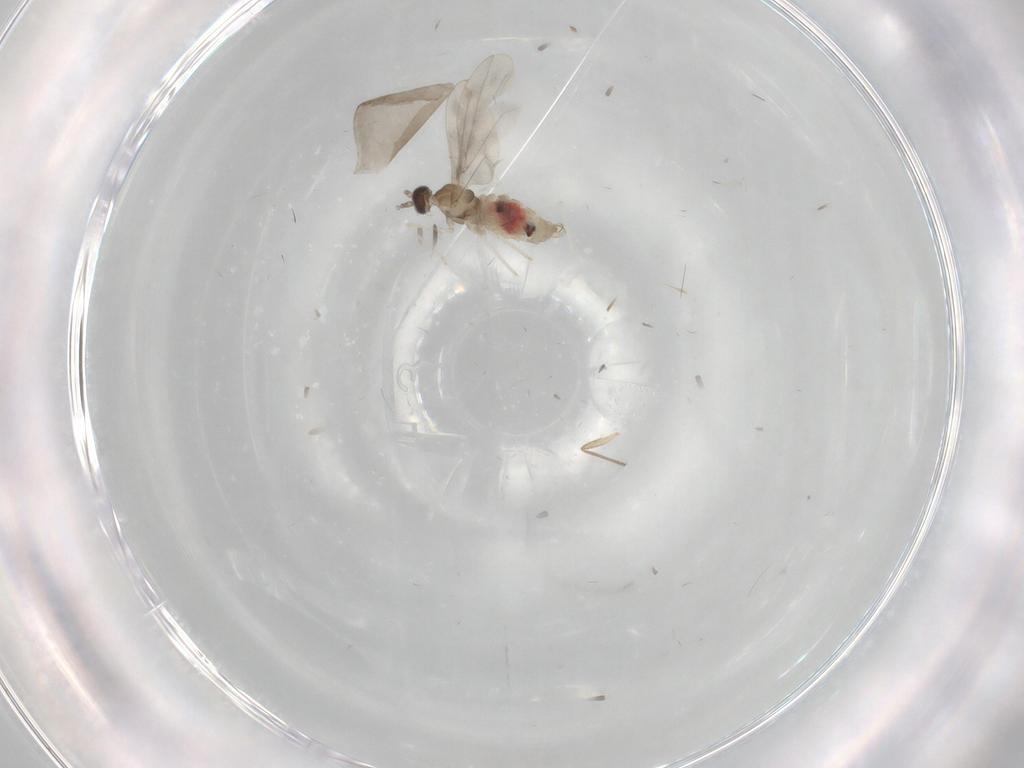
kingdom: Animalia
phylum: Arthropoda
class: Insecta
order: Diptera
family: Cecidomyiidae
